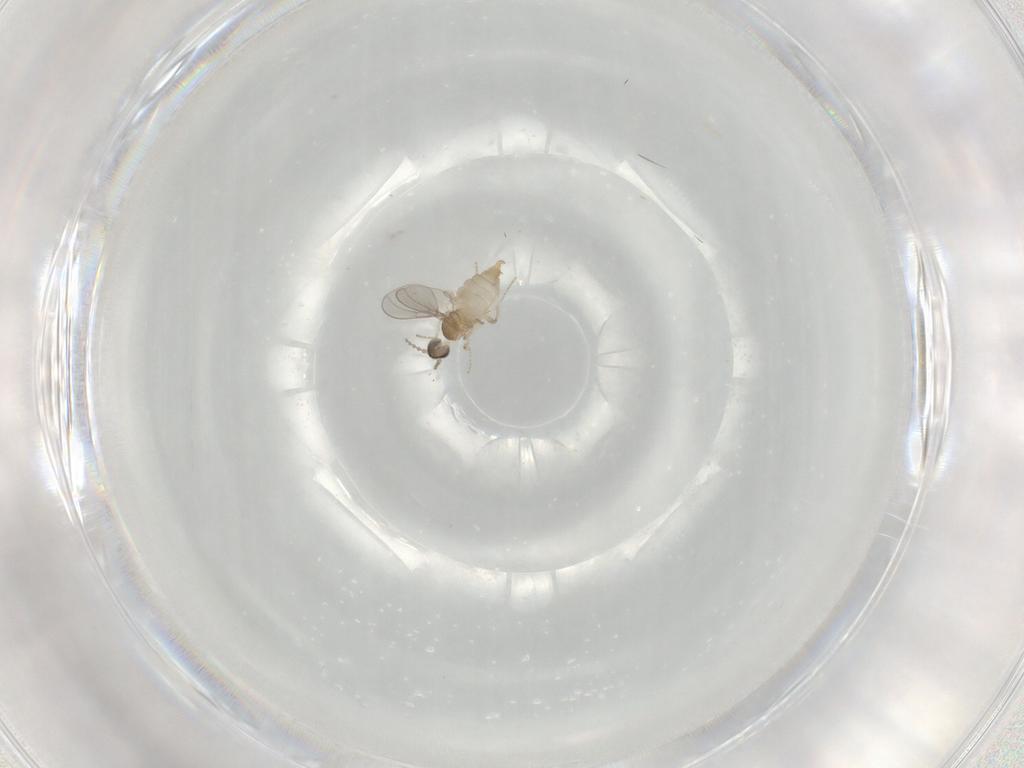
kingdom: Animalia
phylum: Arthropoda
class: Insecta
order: Diptera
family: Cecidomyiidae
